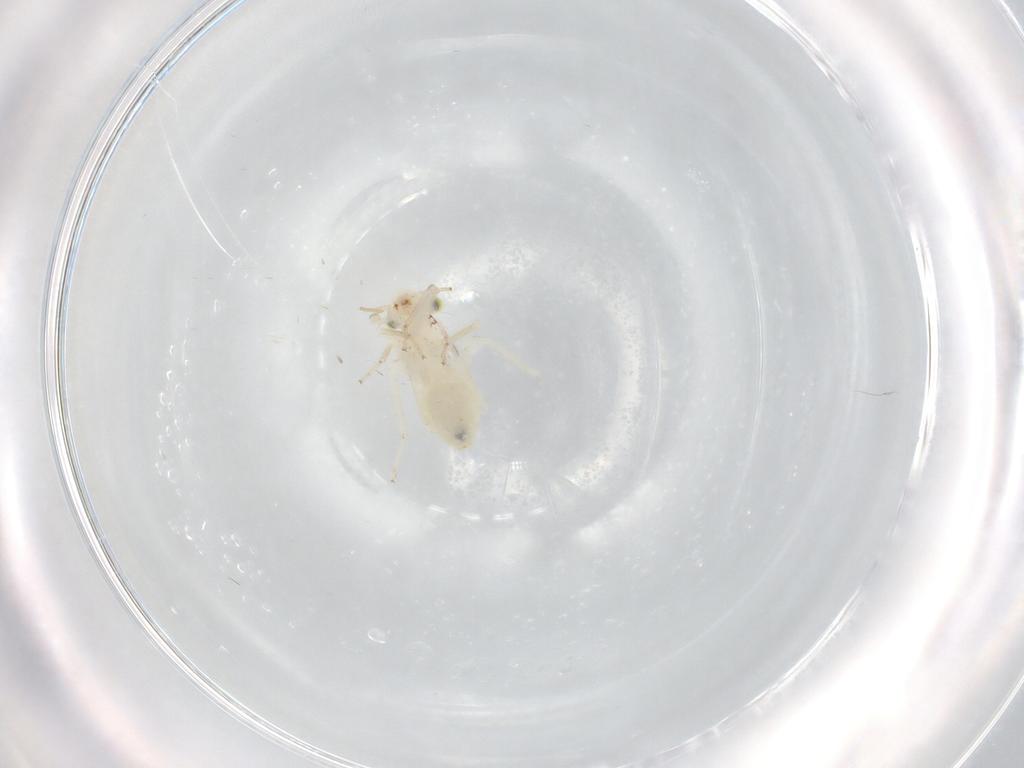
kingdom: Animalia
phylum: Arthropoda
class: Insecta
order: Psocodea
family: Lepidopsocidae
